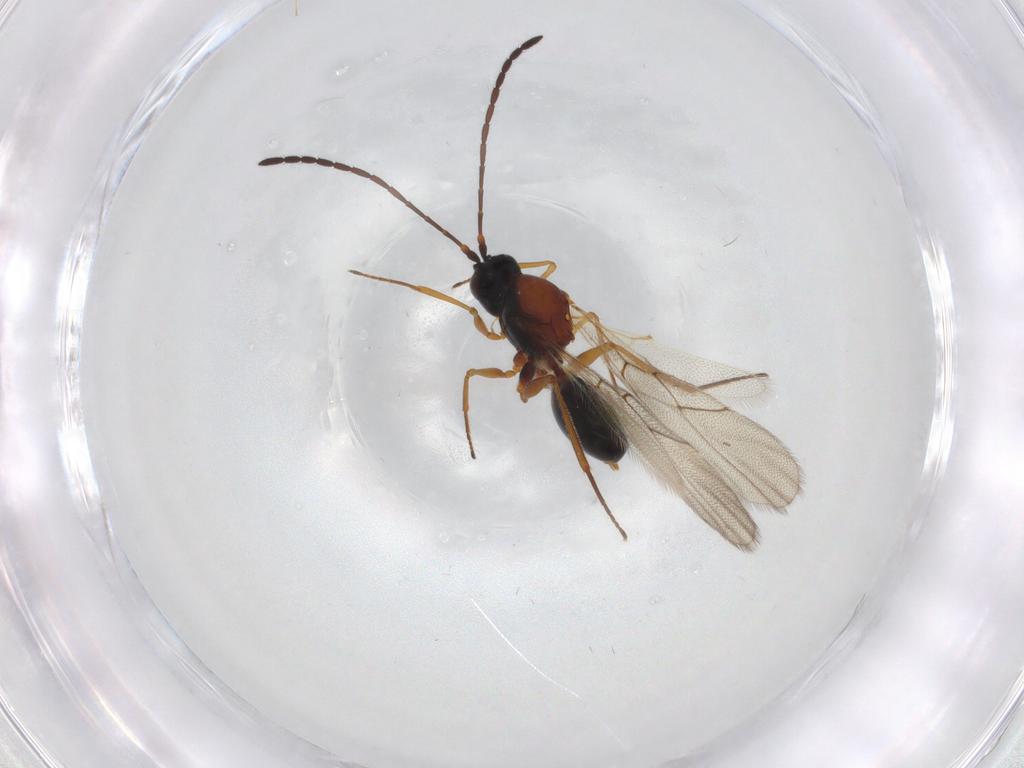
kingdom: Animalia
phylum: Arthropoda
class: Insecta
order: Hymenoptera
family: Figitidae
